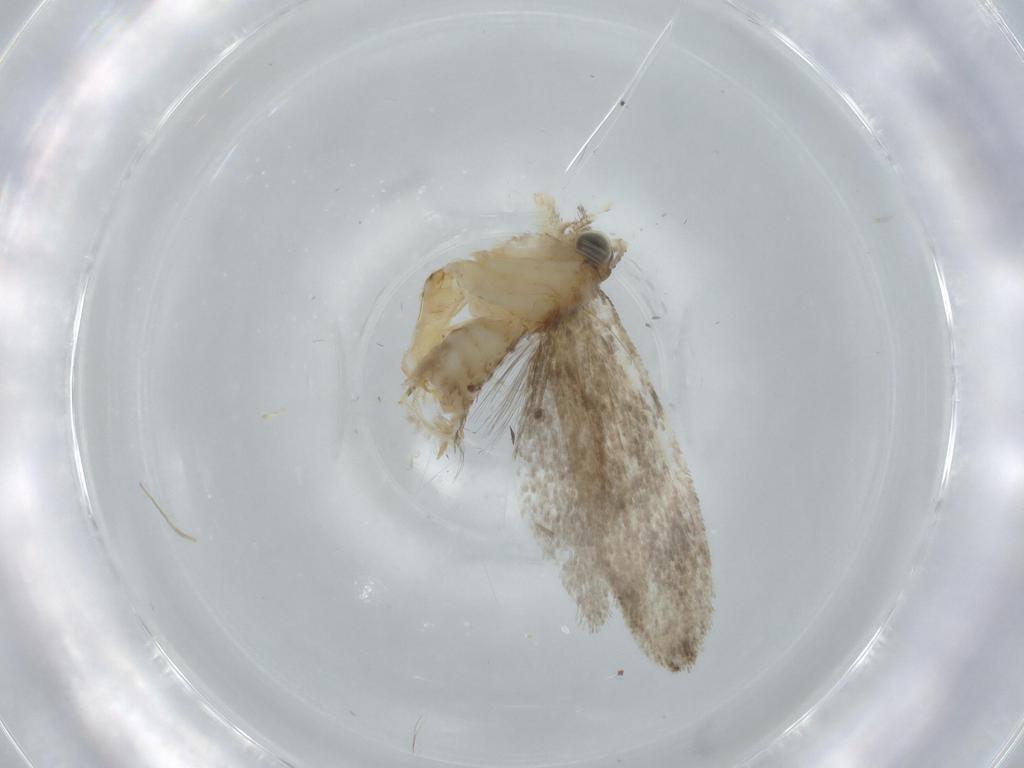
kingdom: Animalia
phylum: Arthropoda
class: Insecta
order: Lepidoptera
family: Tineidae
